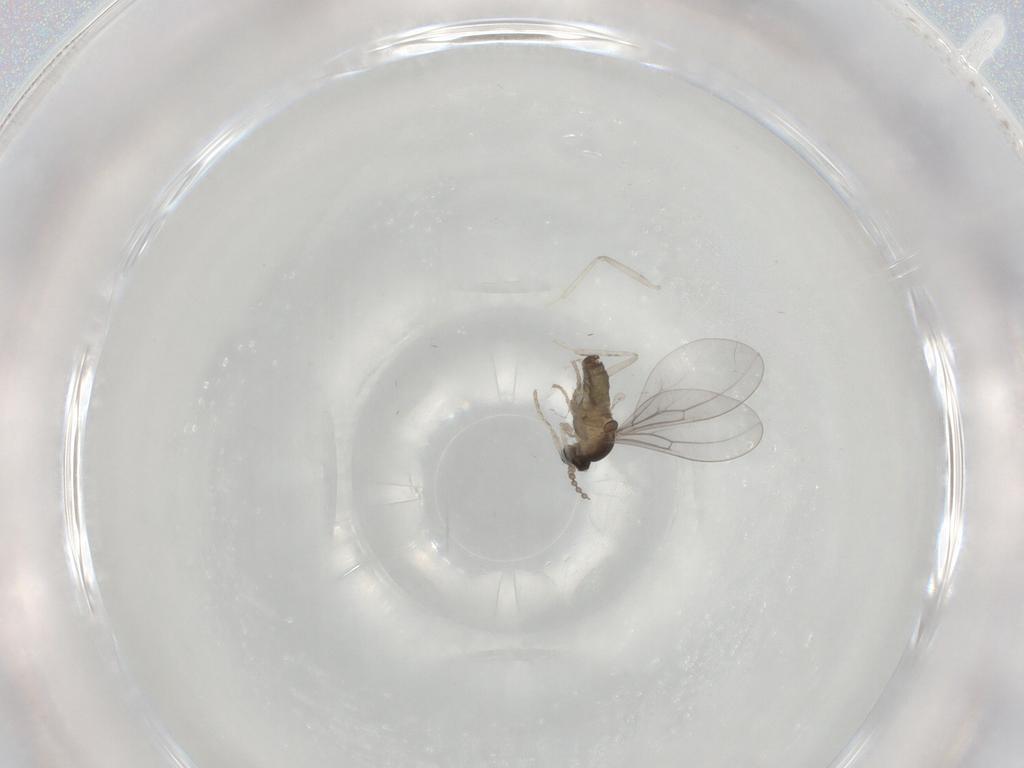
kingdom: Animalia
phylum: Arthropoda
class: Insecta
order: Diptera
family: Chironomidae
